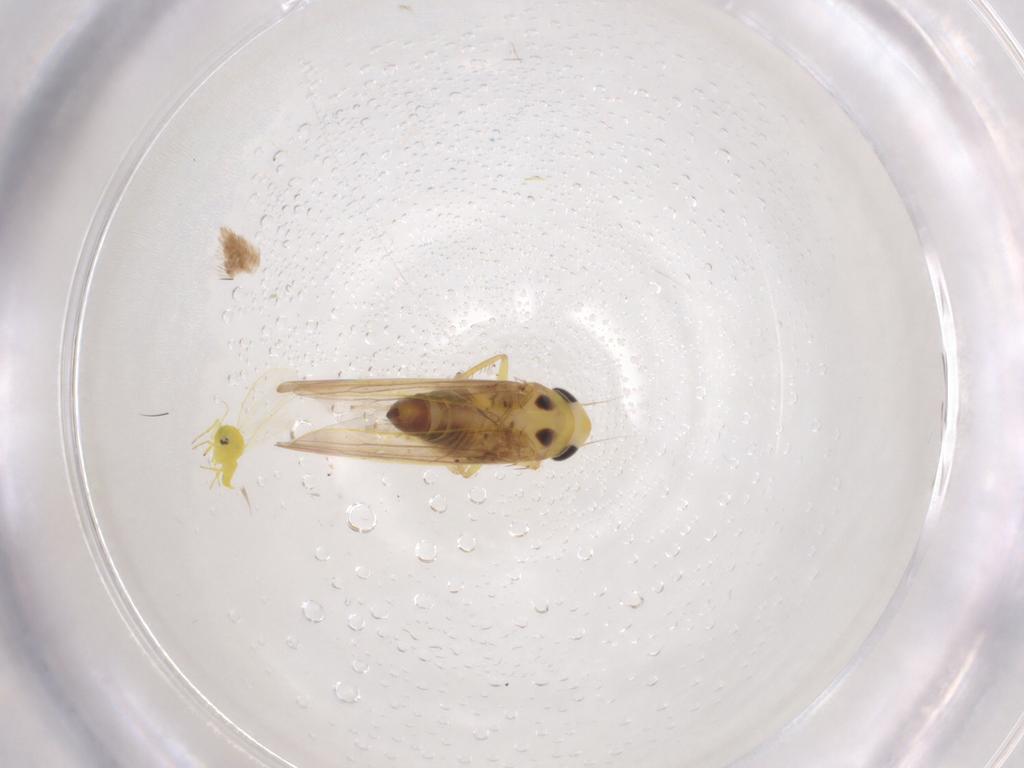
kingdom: Animalia
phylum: Arthropoda
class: Insecta
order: Hemiptera
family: Cicadellidae
